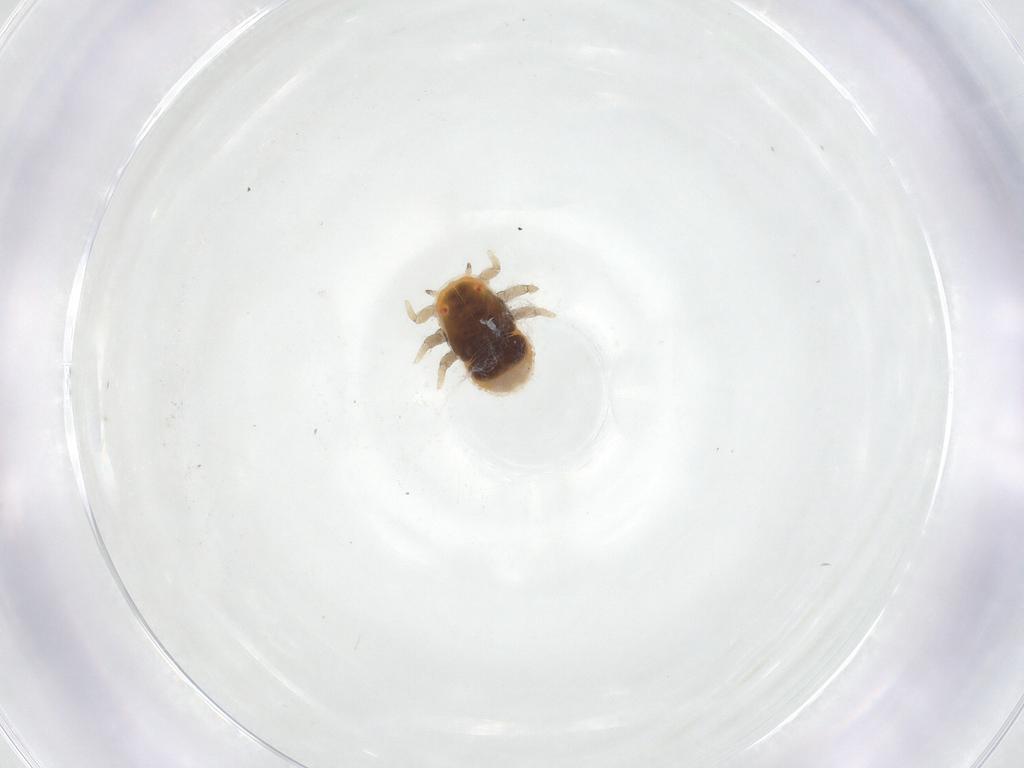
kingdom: Animalia
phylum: Arthropoda
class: Insecta
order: Hemiptera
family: Triozidae
